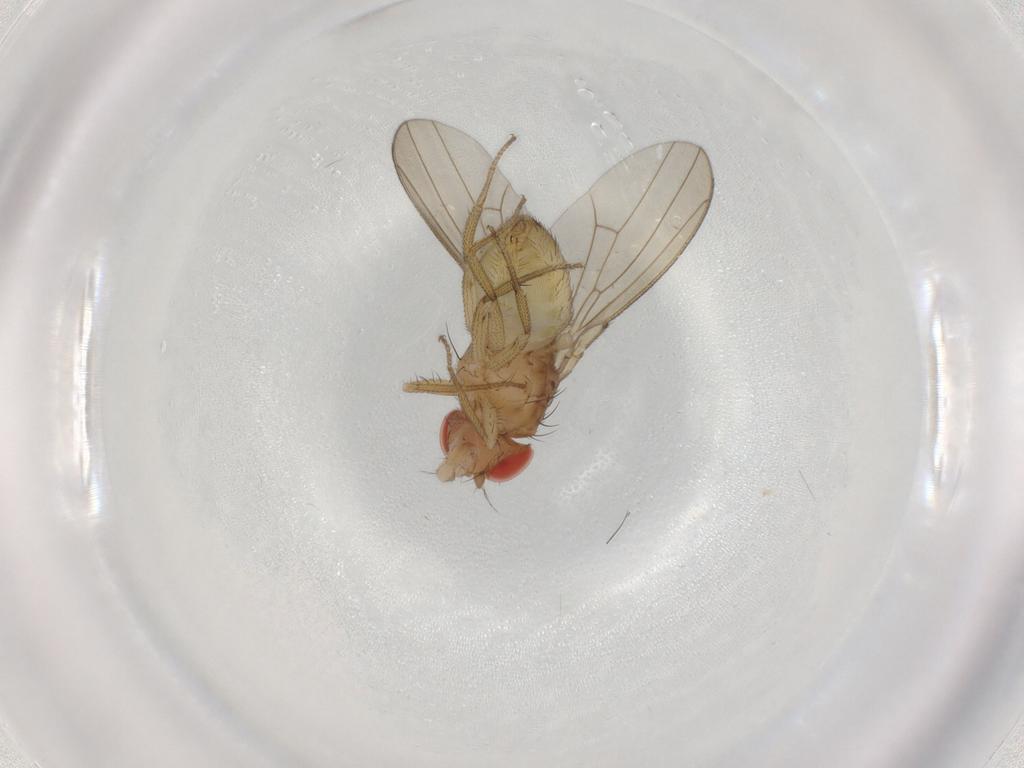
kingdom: Animalia
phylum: Arthropoda
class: Insecta
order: Diptera
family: Drosophilidae
